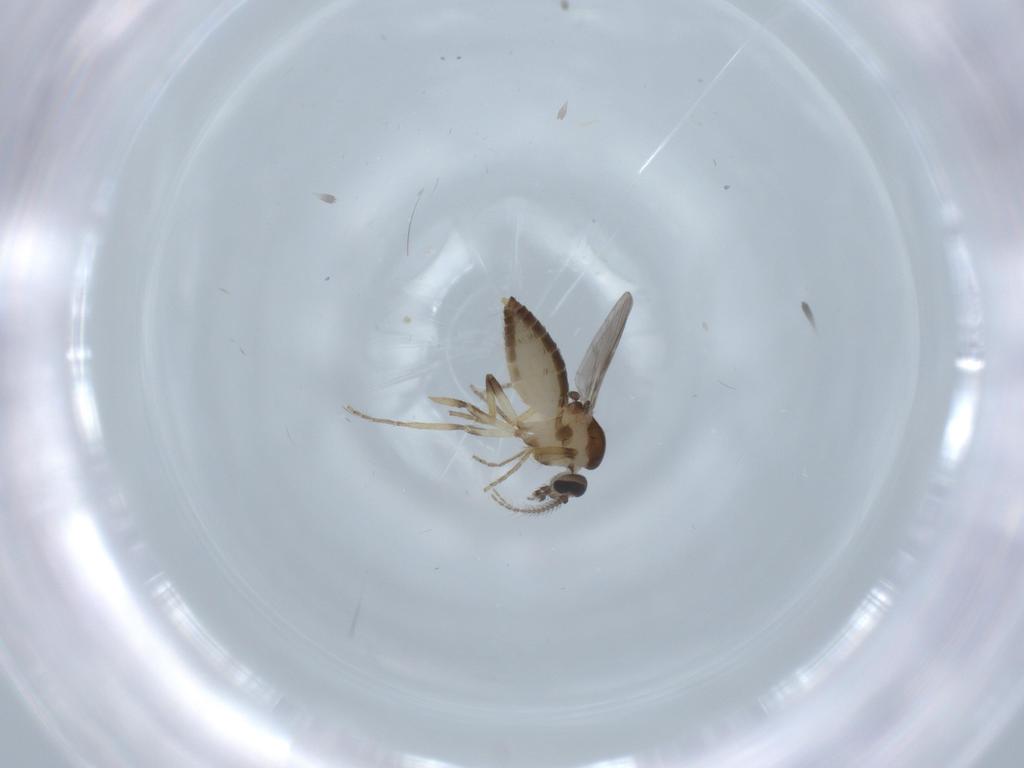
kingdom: Animalia
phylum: Arthropoda
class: Insecta
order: Diptera
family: Ceratopogonidae
